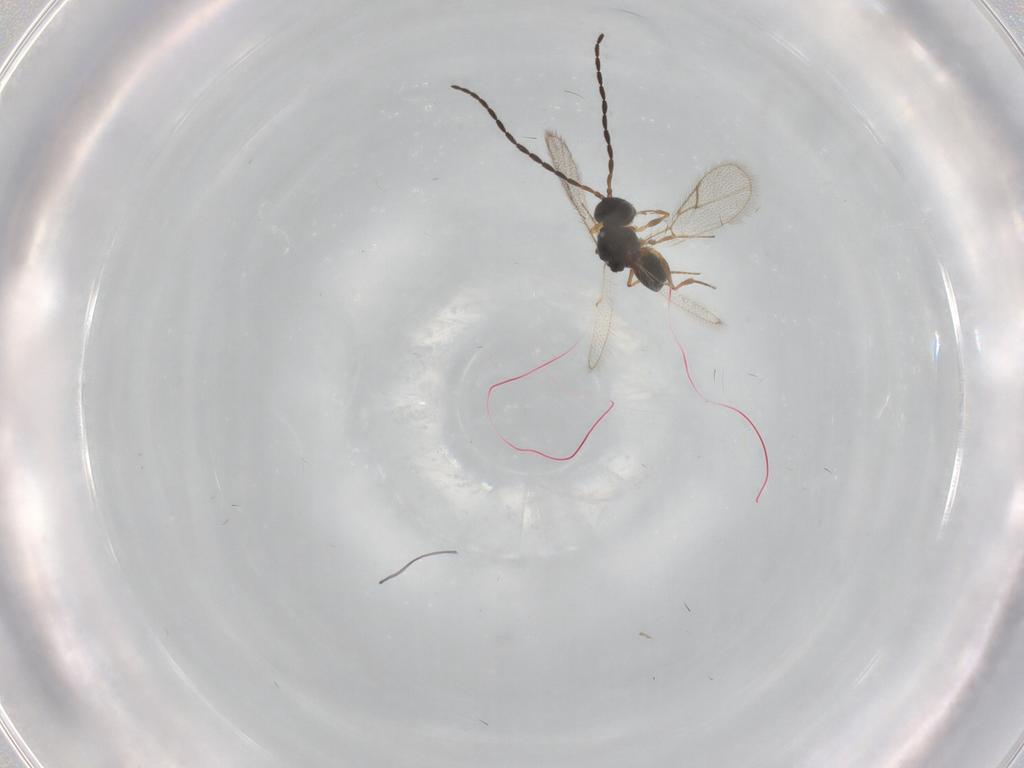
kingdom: Animalia
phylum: Arthropoda
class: Insecta
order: Hymenoptera
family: Figitidae
